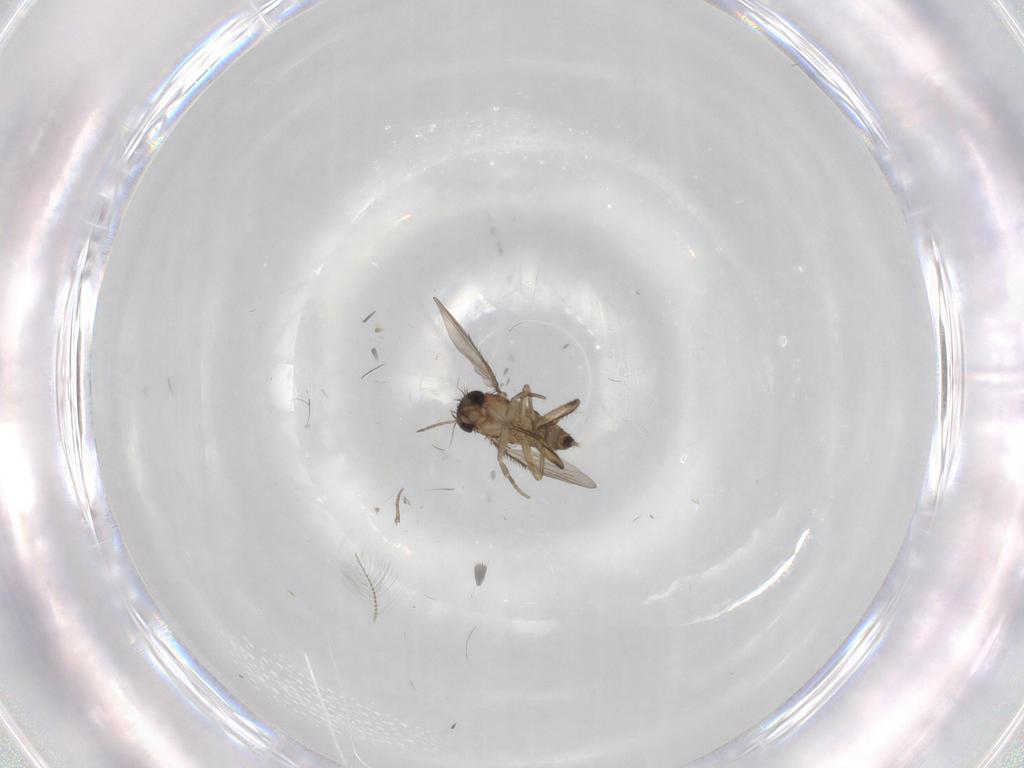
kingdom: Animalia
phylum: Arthropoda
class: Insecta
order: Diptera
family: Phoridae
